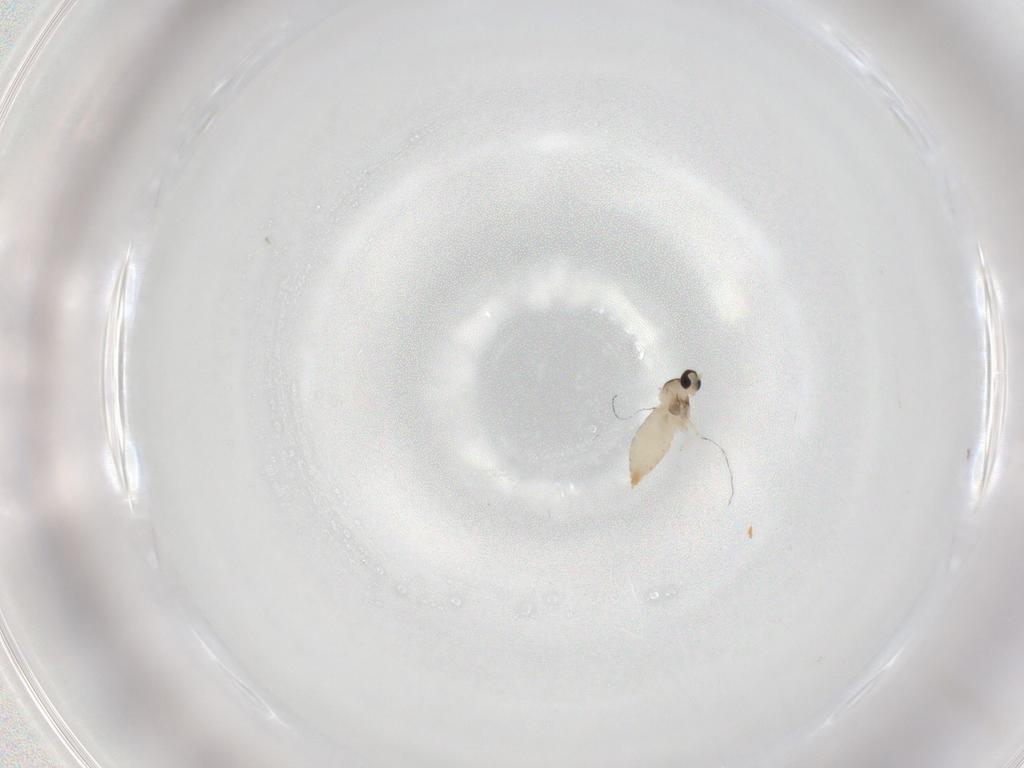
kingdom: Animalia
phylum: Arthropoda
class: Insecta
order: Diptera
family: Cecidomyiidae
